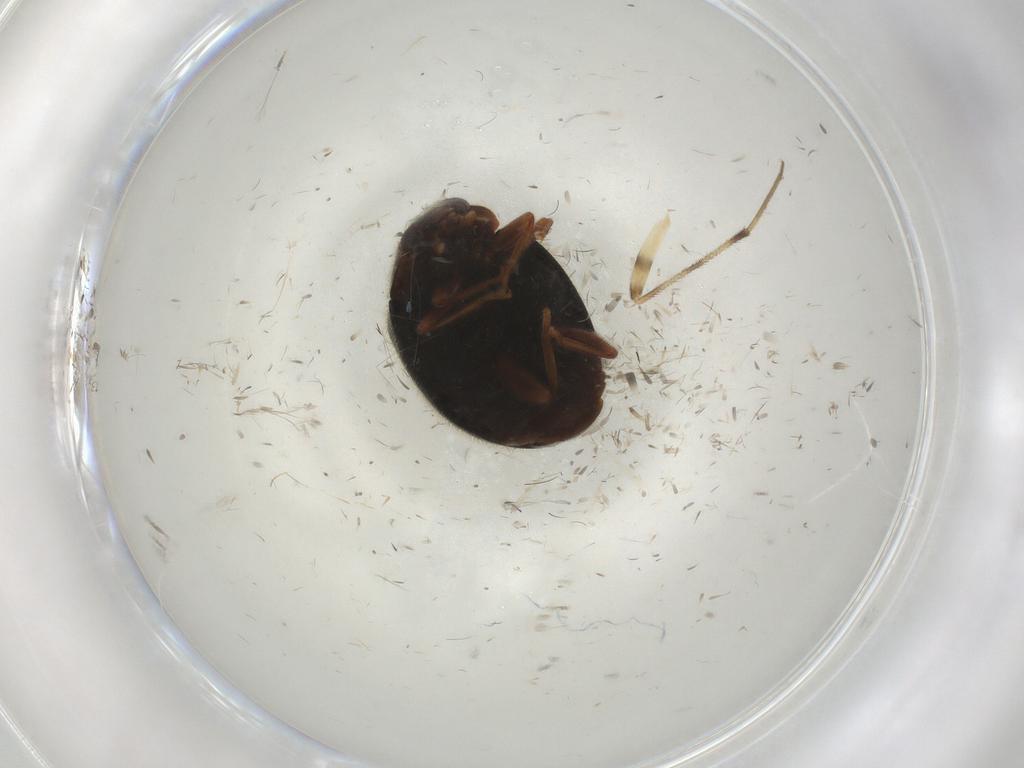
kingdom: Animalia
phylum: Arthropoda
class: Insecta
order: Coleoptera
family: Coccinellidae
